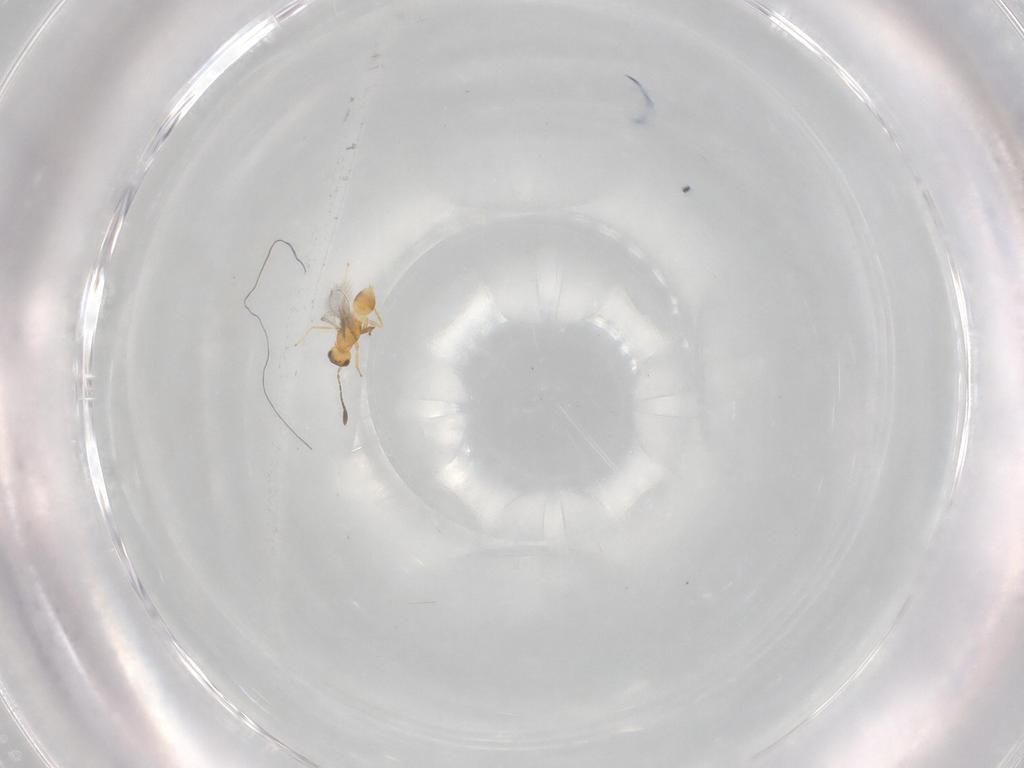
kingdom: Animalia
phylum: Arthropoda
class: Insecta
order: Hymenoptera
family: Mymaridae
